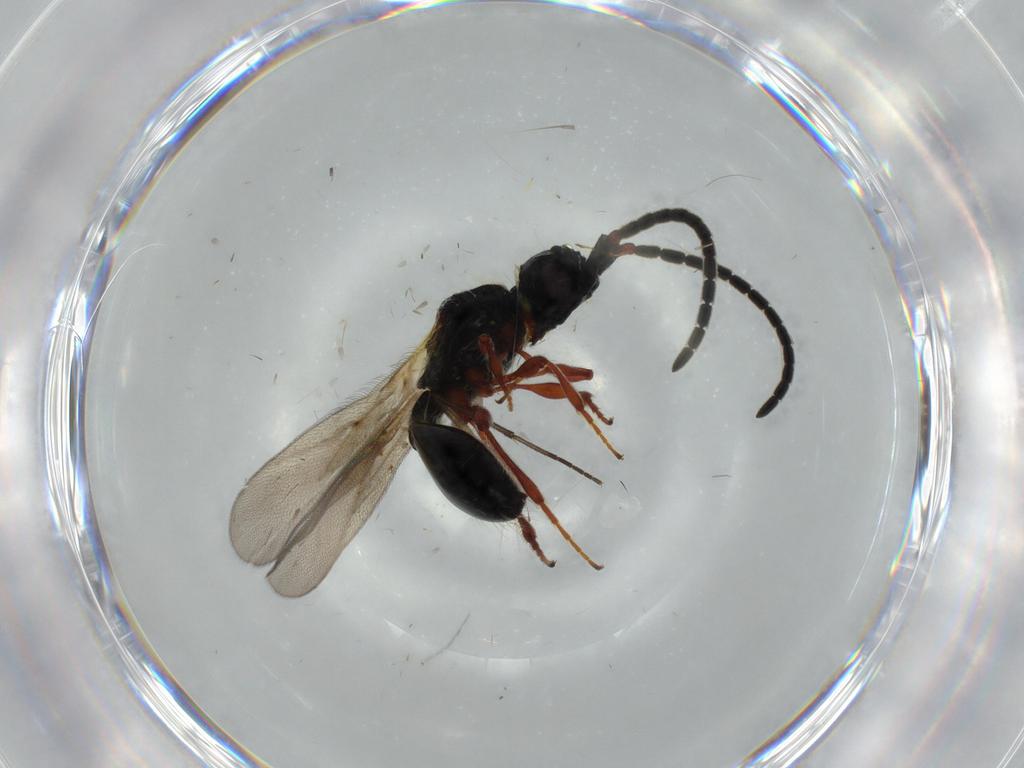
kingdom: Animalia
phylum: Arthropoda
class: Insecta
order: Hymenoptera
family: Diapriidae
